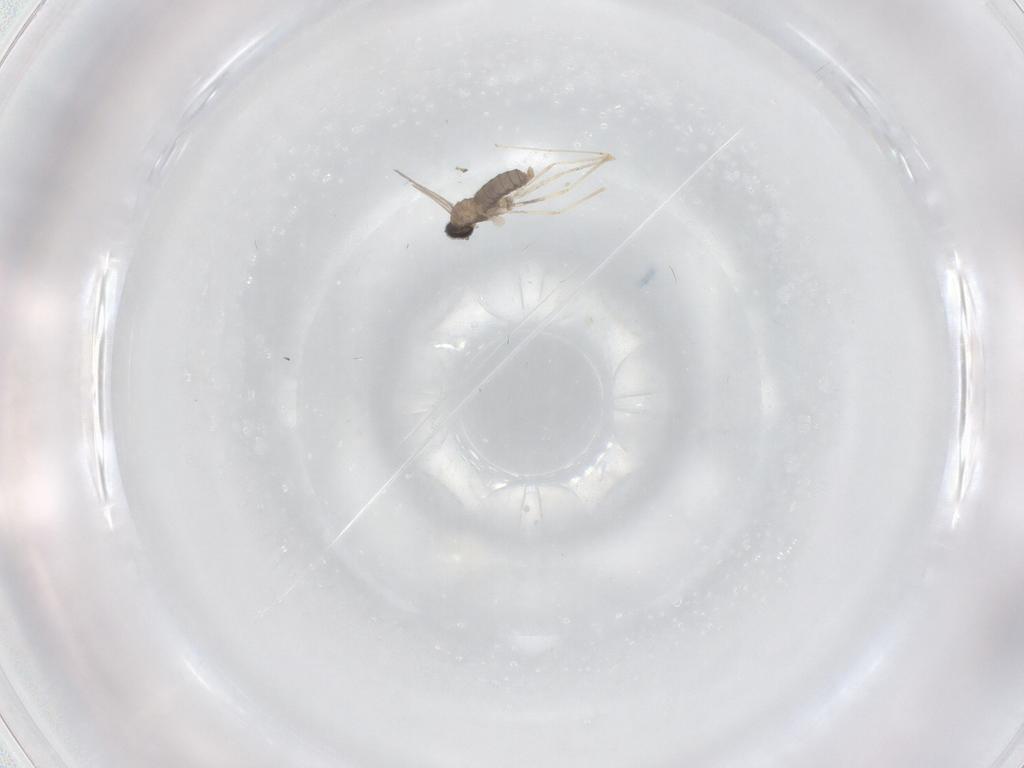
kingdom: Animalia
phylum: Arthropoda
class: Insecta
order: Diptera
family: Cecidomyiidae
